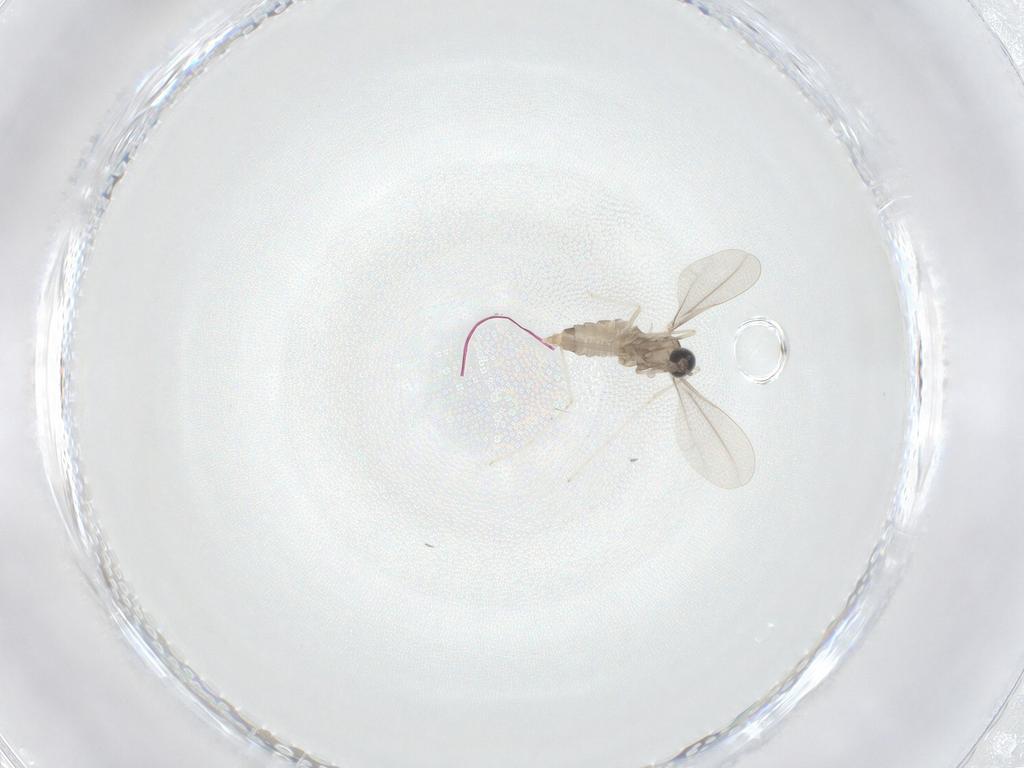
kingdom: Animalia
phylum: Arthropoda
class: Insecta
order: Diptera
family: Cecidomyiidae
